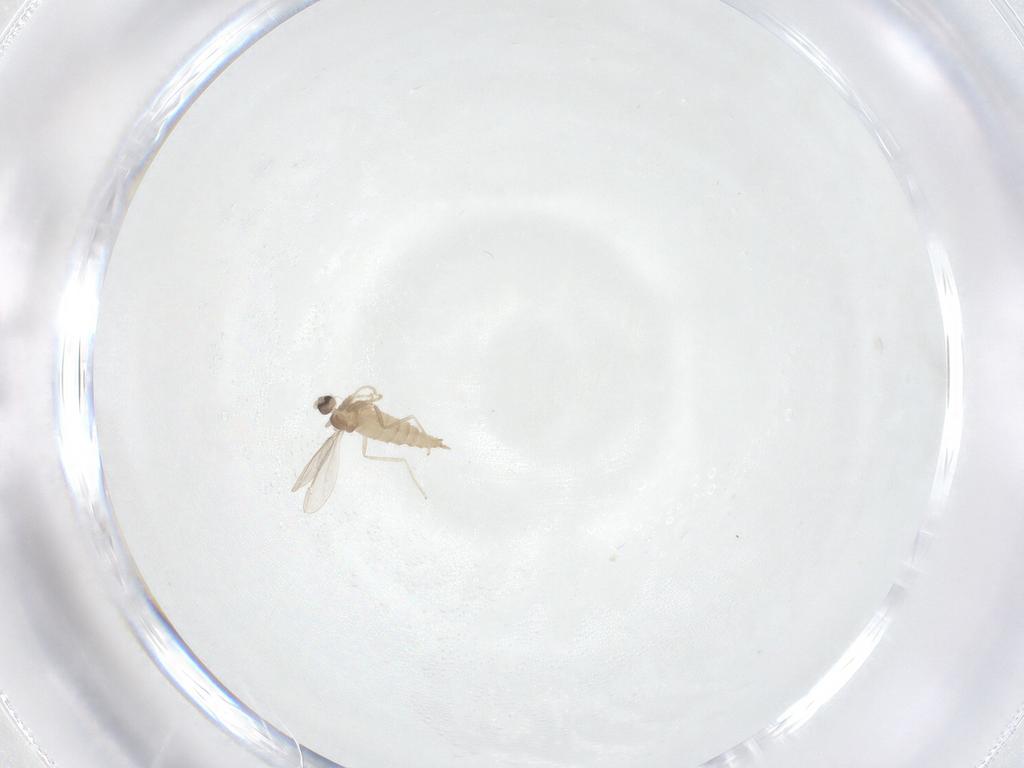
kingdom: Animalia
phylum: Arthropoda
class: Insecta
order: Diptera
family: Cecidomyiidae
